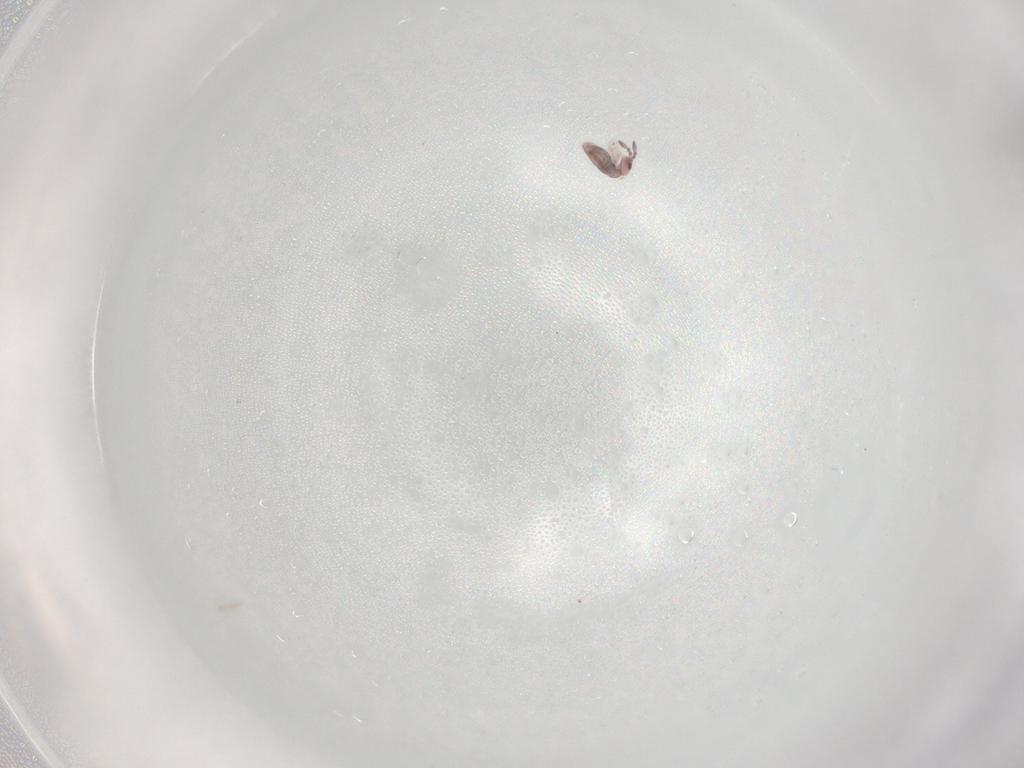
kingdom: Animalia
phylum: Arthropoda
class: Collembola
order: Entomobryomorpha
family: Entomobryidae
